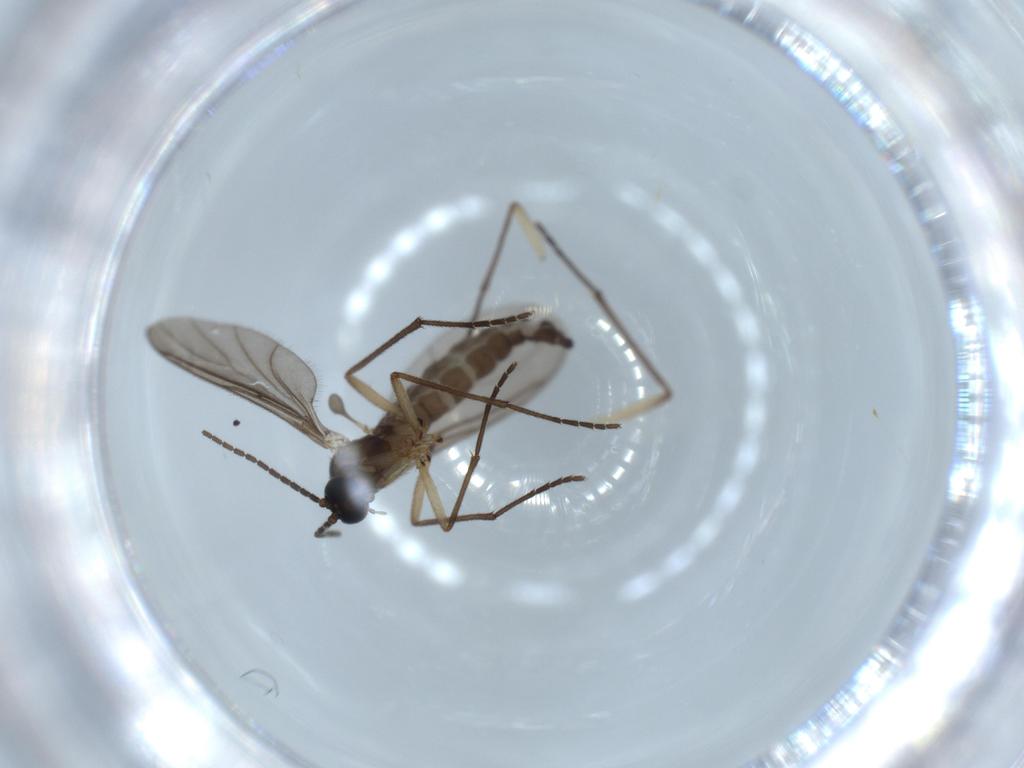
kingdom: Animalia
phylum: Arthropoda
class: Insecta
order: Diptera
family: Sciaridae
